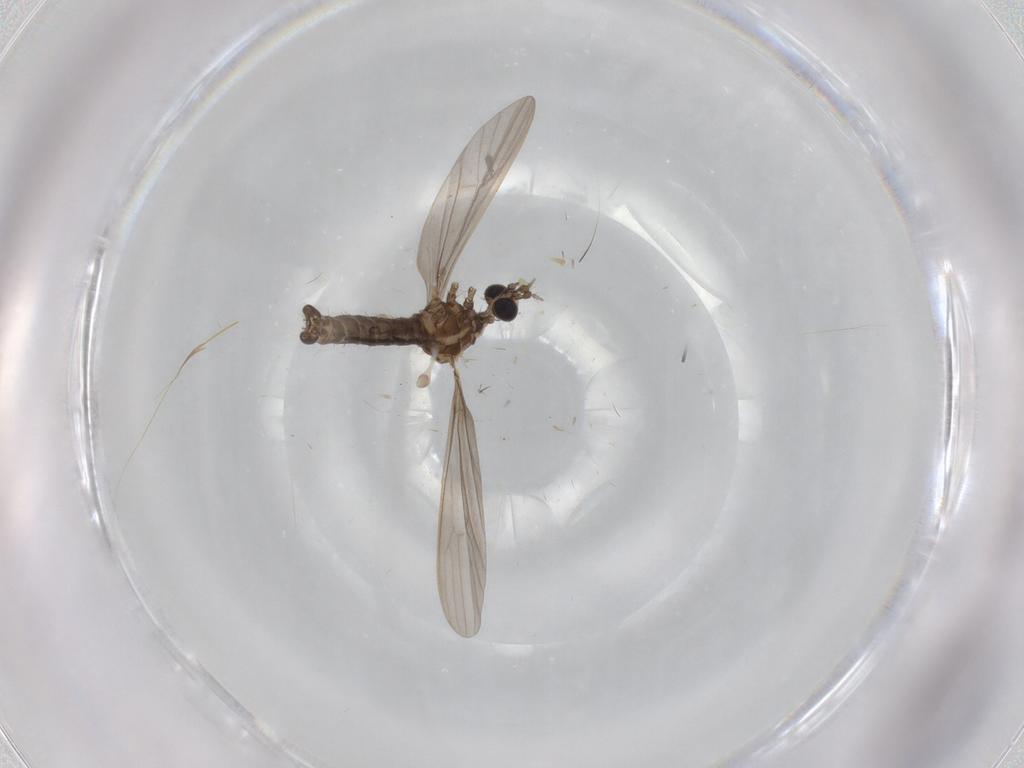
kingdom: Animalia
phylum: Arthropoda
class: Insecta
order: Diptera
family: Limoniidae
